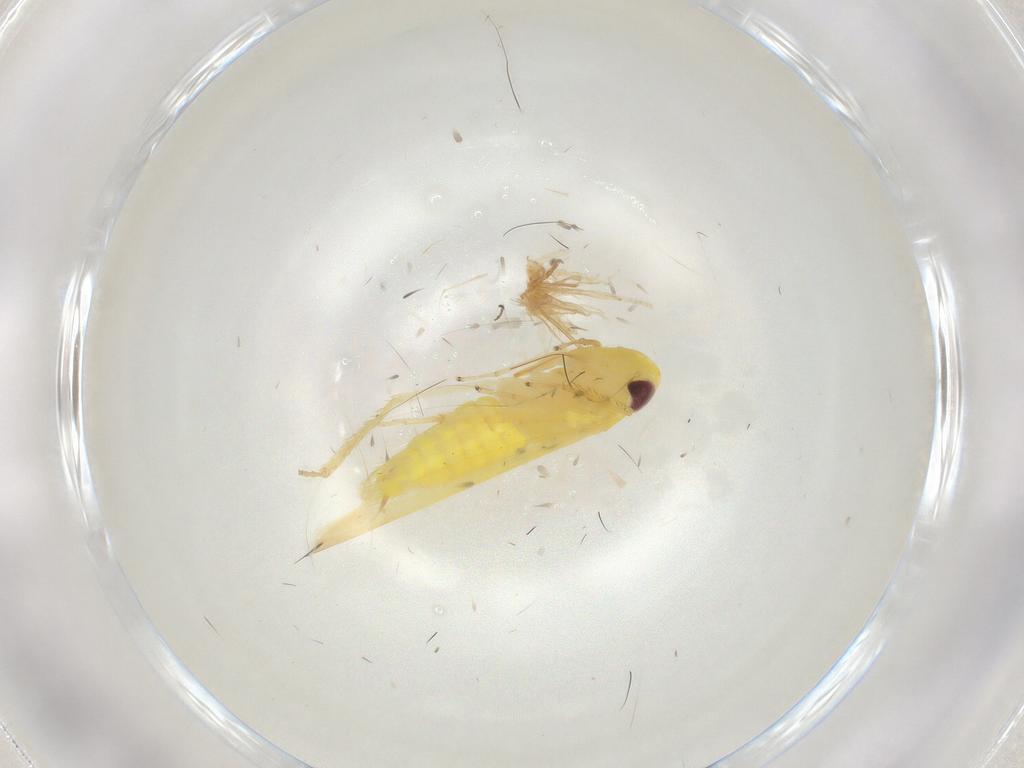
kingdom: Animalia
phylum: Arthropoda
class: Insecta
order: Hemiptera
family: Cicadellidae
